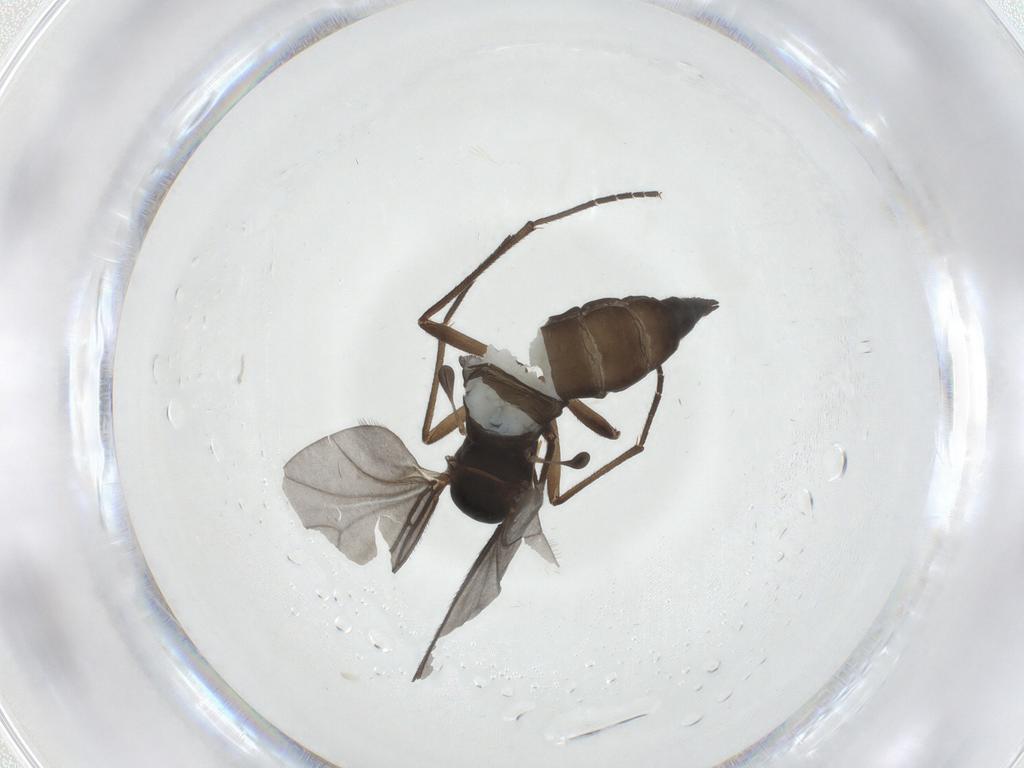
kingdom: Animalia
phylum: Arthropoda
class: Insecta
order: Diptera
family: Sciaridae
